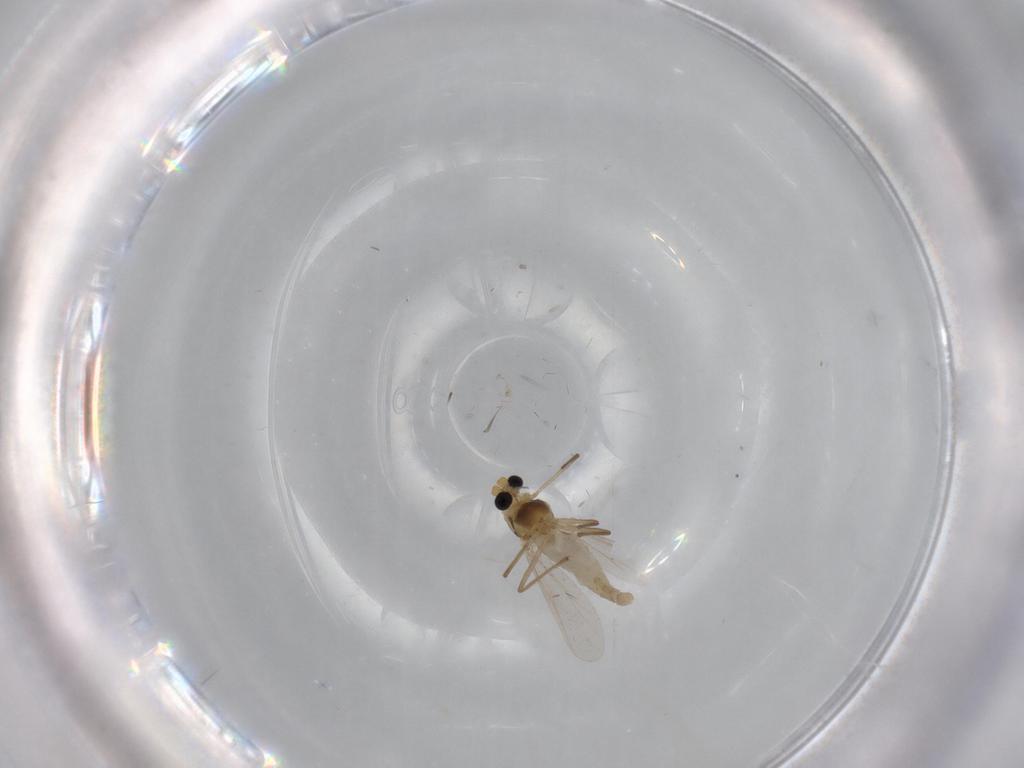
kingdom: Animalia
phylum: Arthropoda
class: Insecta
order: Diptera
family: Chironomidae
